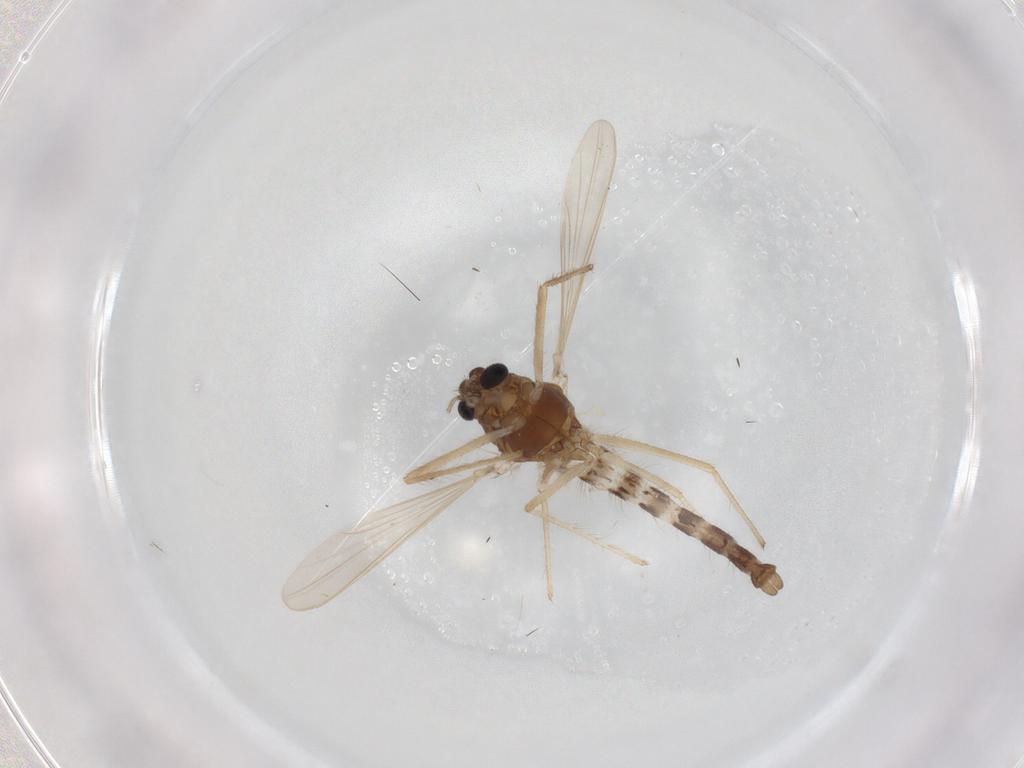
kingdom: Animalia
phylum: Arthropoda
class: Insecta
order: Diptera
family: Chironomidae
